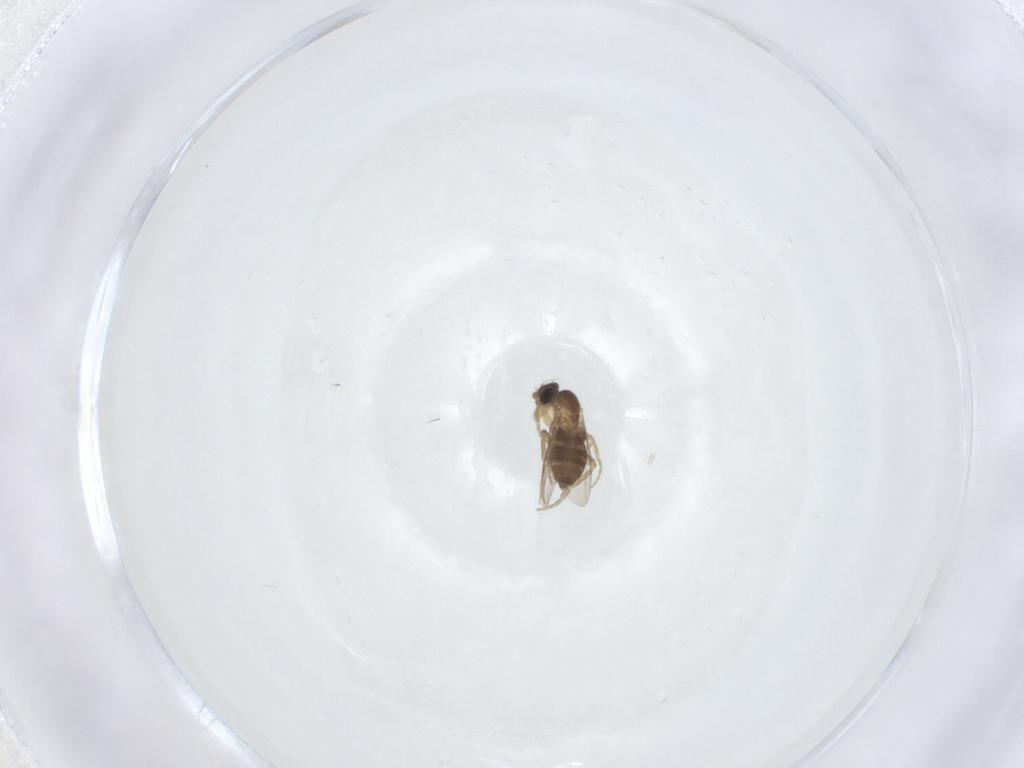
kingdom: Animalia
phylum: Arthropoda
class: Insecta
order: Diptera
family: Phoridae
